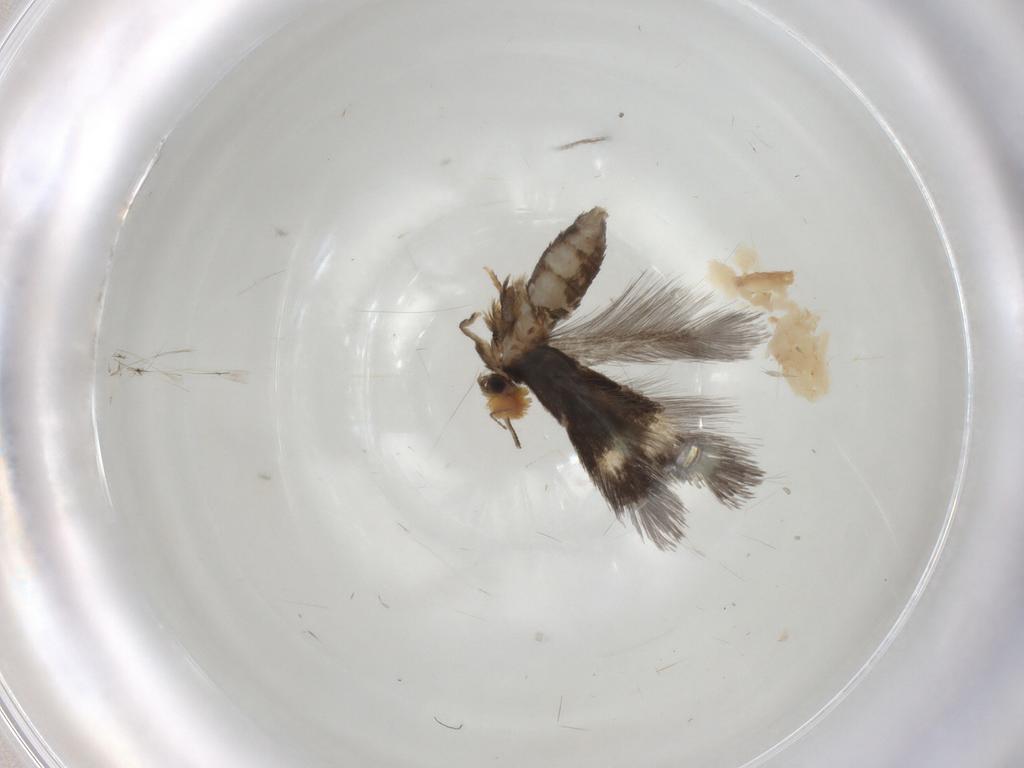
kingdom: Animalia
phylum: Arthropoda
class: Insecta
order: Lepidoptera
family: Nepticulidae
